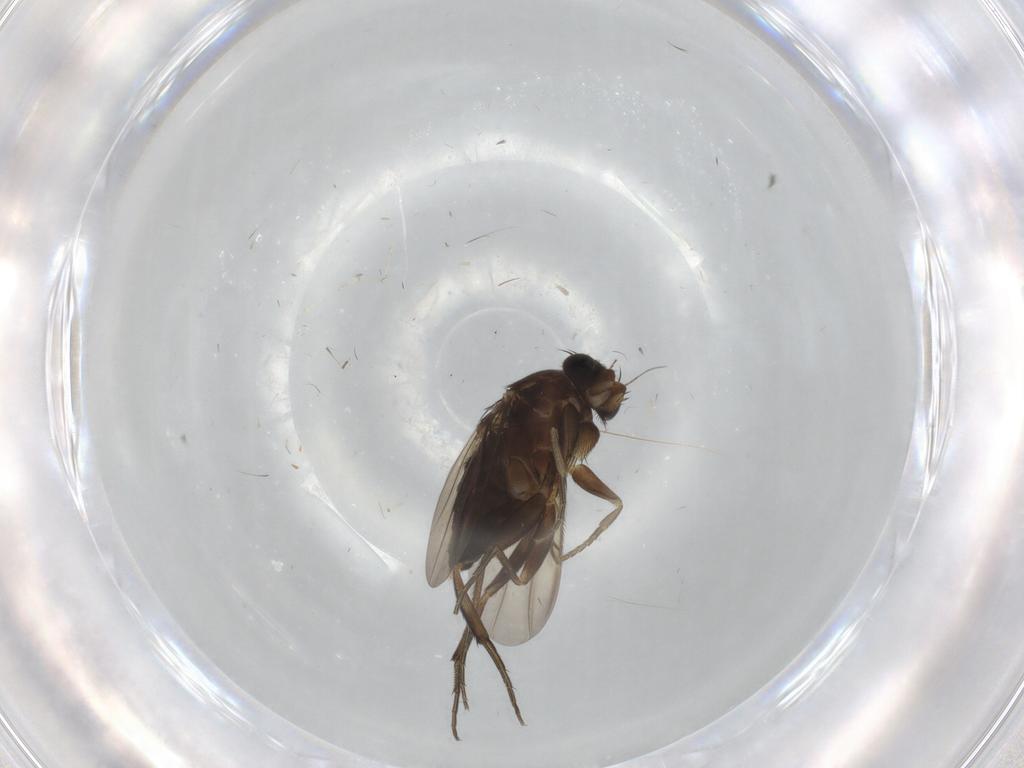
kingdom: Animalia
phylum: Arthropoda
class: Insecta
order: Diptera
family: Phoridae
